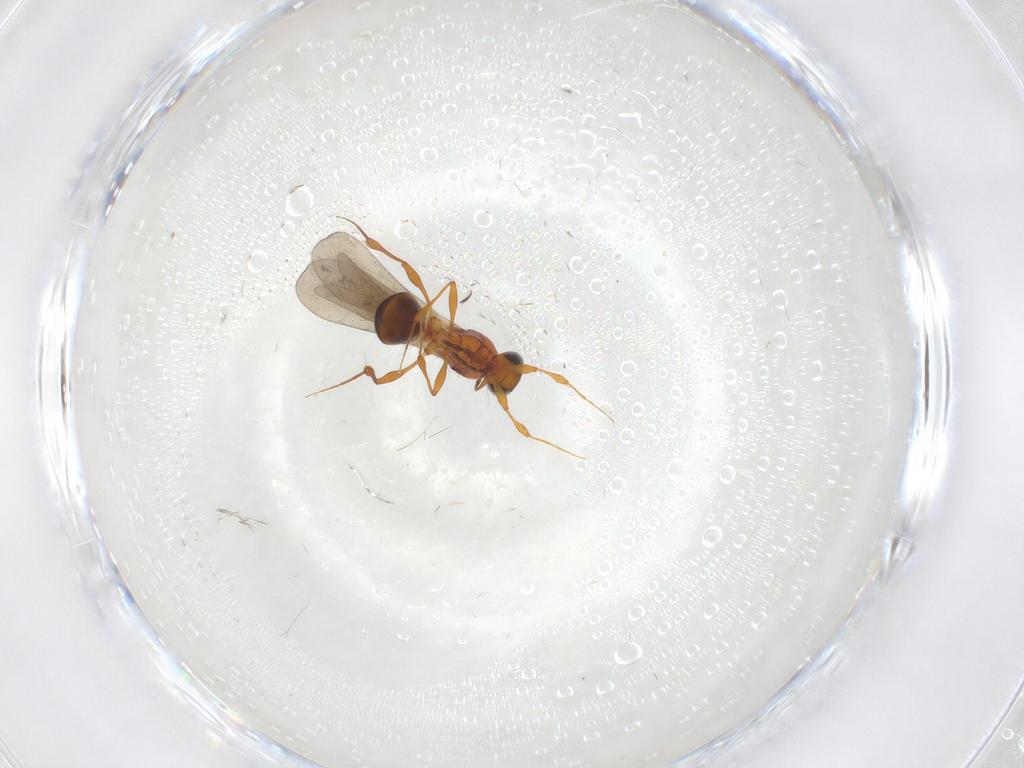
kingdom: Animalia
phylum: Arthropoda
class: Insecta
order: Hymenoptera
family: Platygastridae
